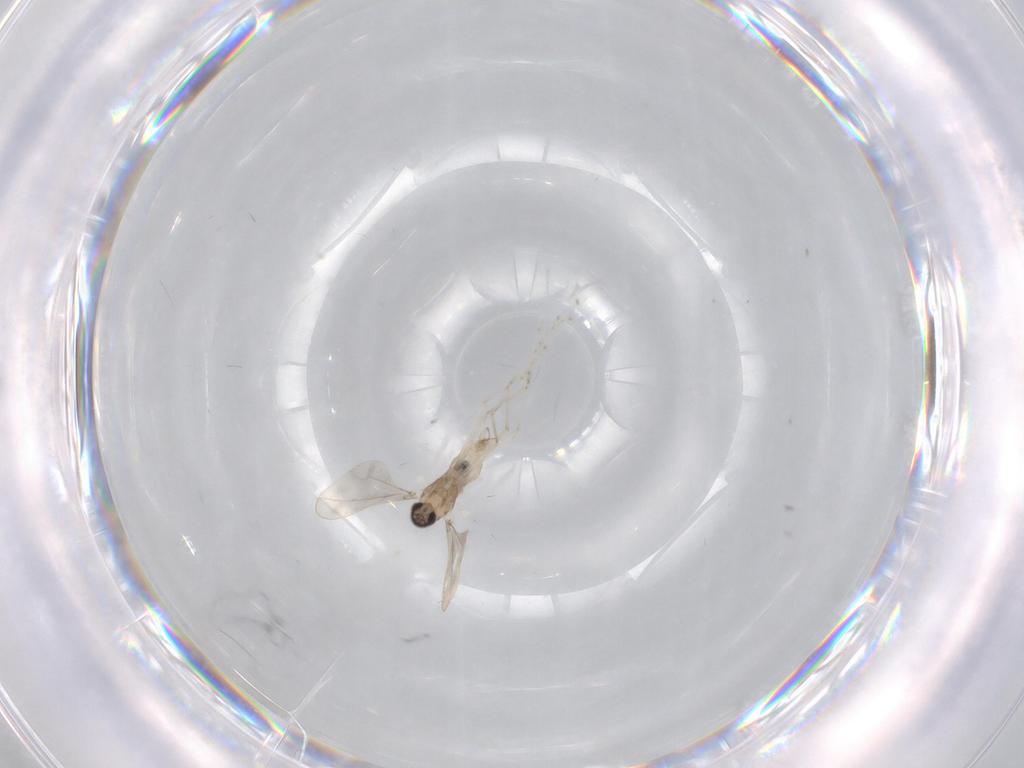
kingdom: Animalia
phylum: Arthropoda
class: Insecta
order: Diptera
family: Cecidomyiidae
